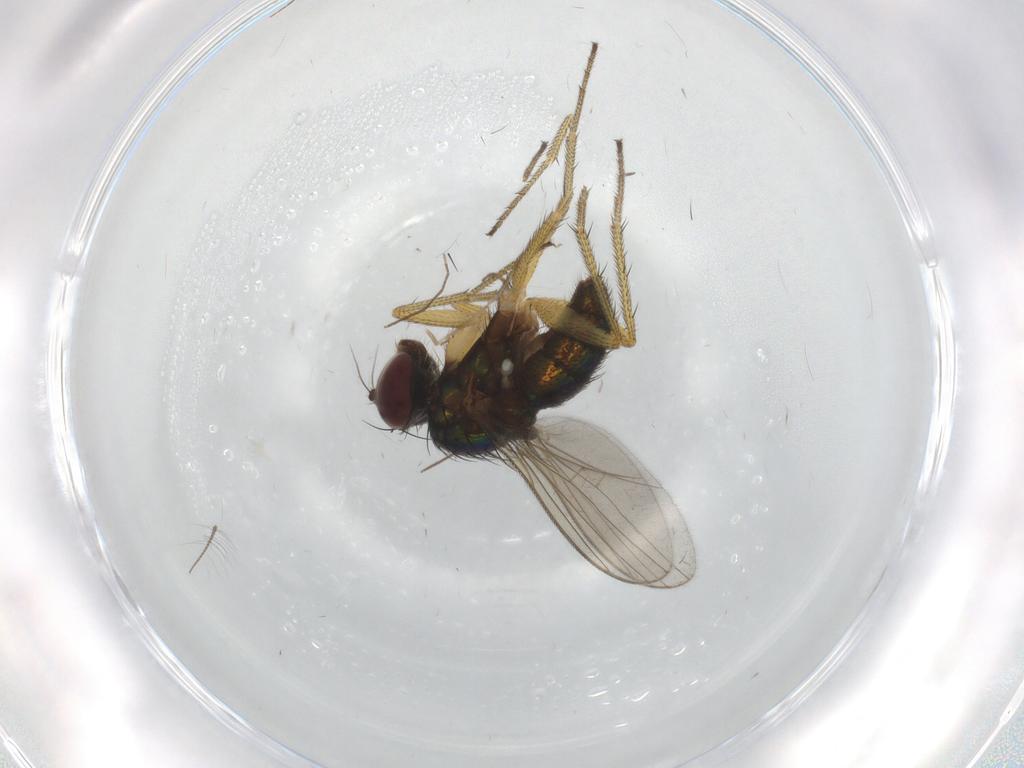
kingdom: Animalia
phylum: Arthropoda
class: Insecta
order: Diptera
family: Chironomidae
